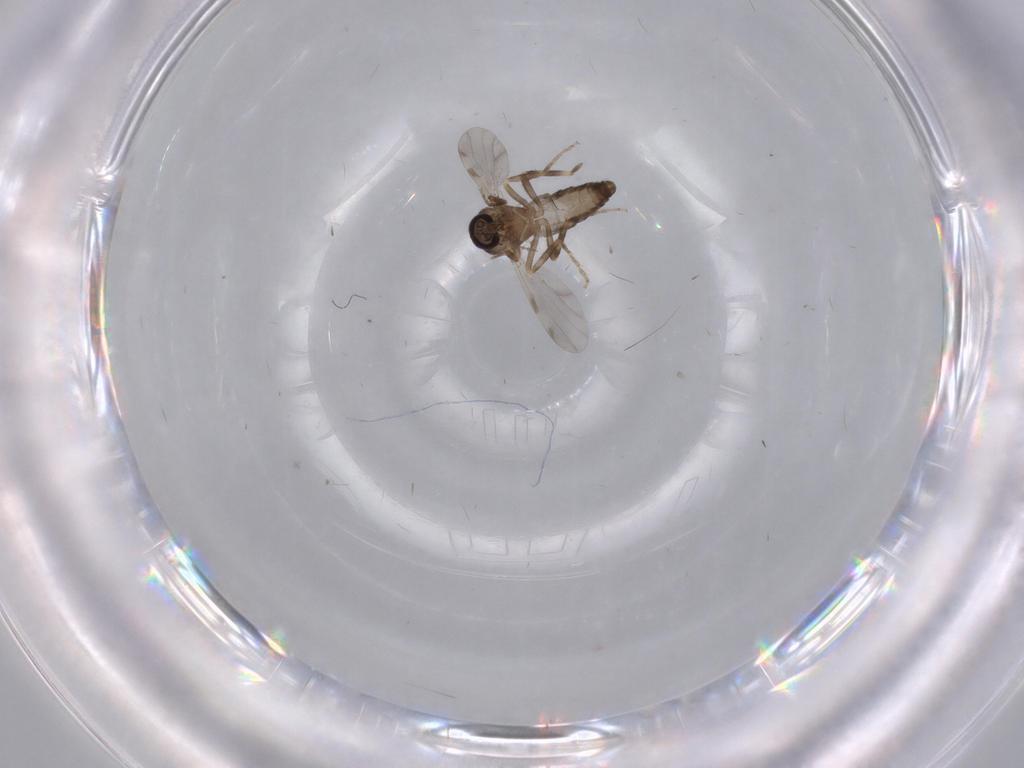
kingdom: Animalia
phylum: Arthropoda
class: Insecta
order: Diptera
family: Ceratopogonidae
